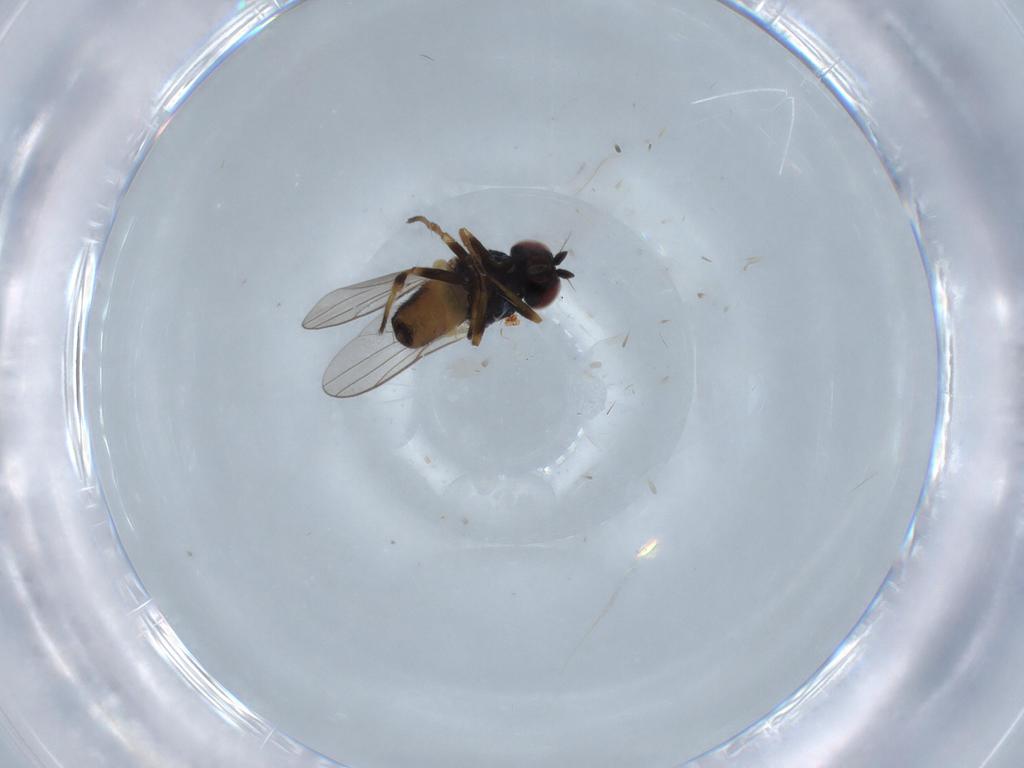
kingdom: Animalia
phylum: Arthropoda
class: Insecta
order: Diptera
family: Chloropidae
